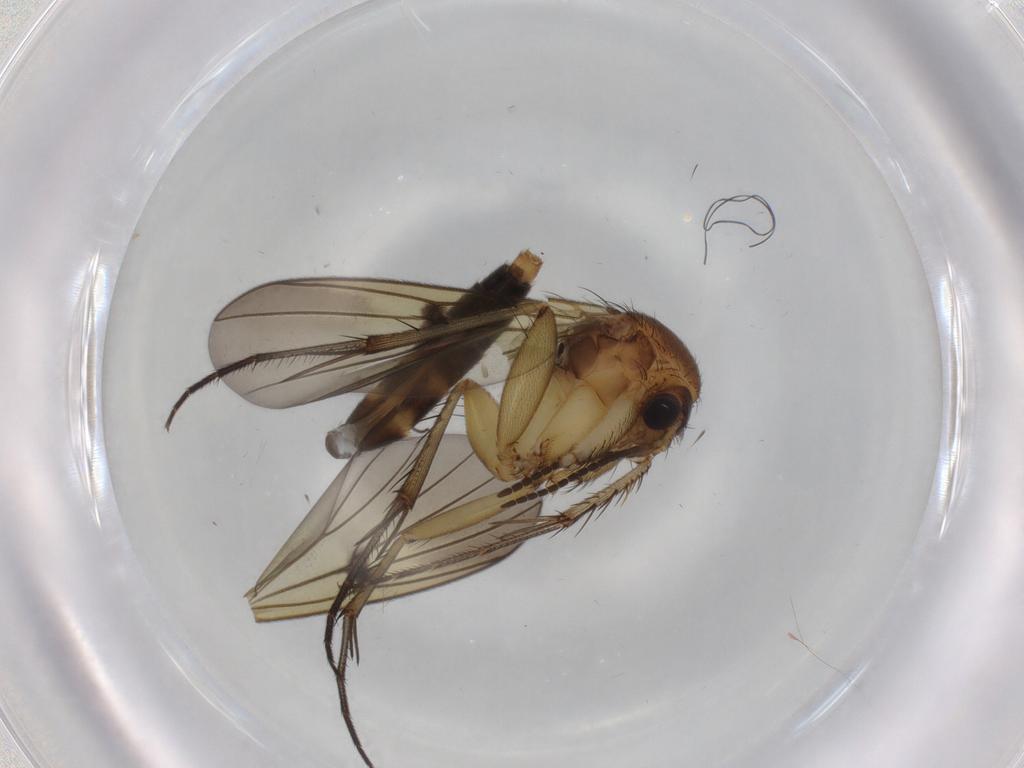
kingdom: Animalia
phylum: Arthropoda
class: Insecta
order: Diptera
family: Mycetophilidae
